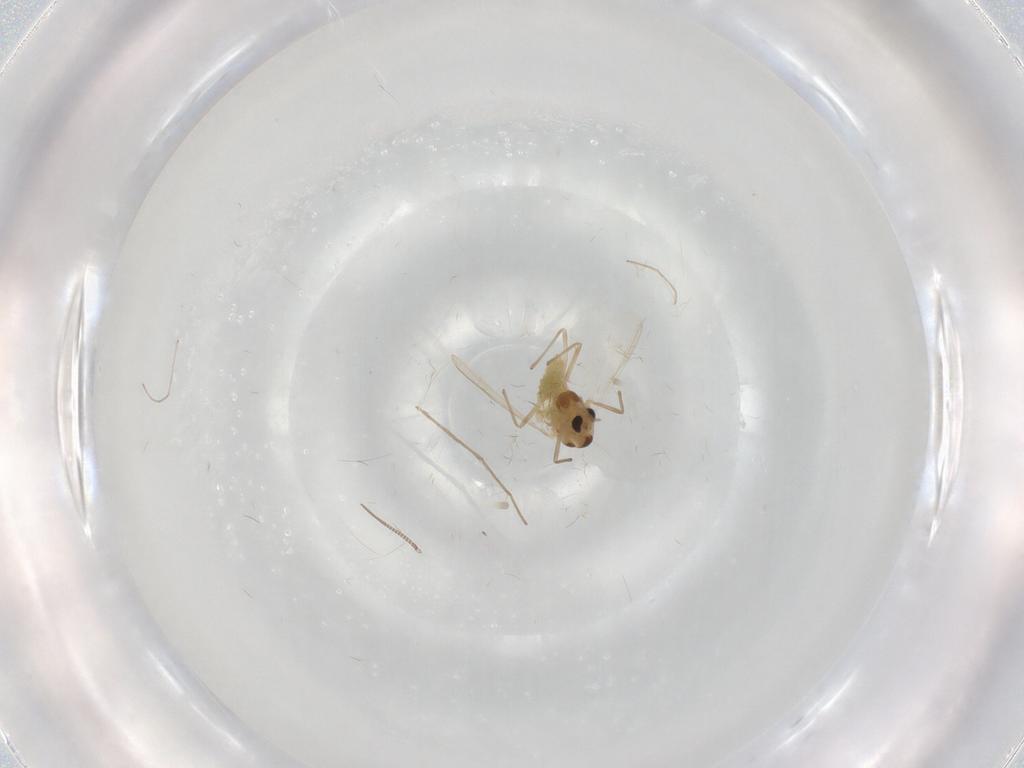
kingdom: Animalia
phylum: Arthropoda
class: Insecta
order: Diptera
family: Chironomidae
